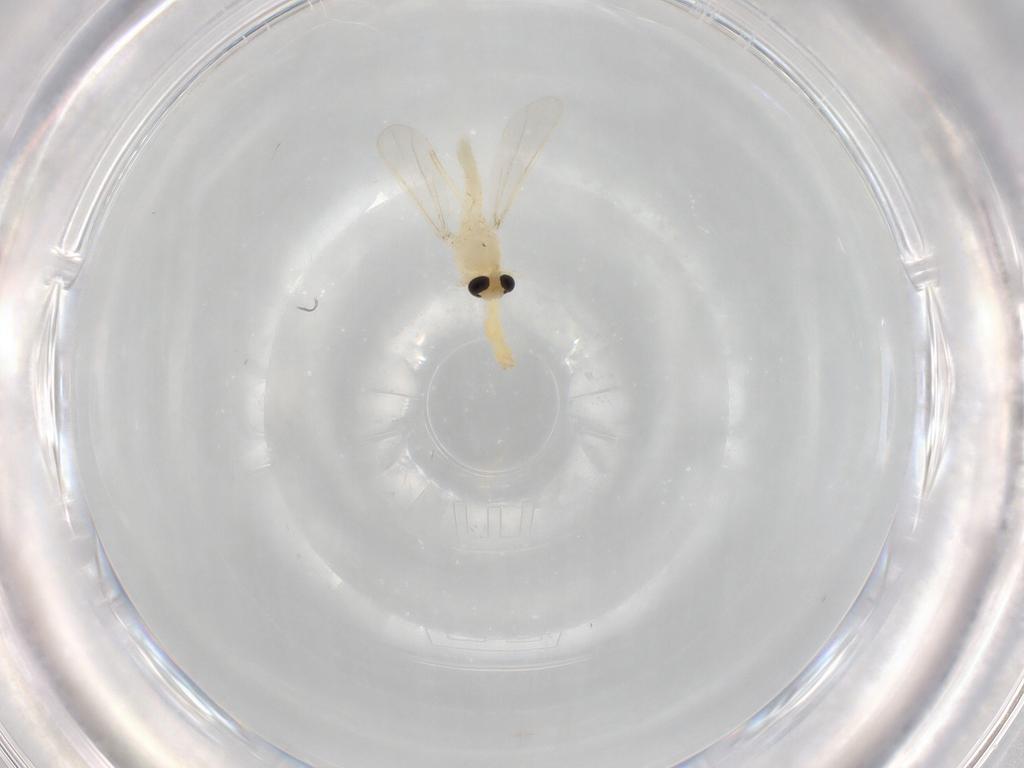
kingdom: Animalia
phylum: Arthropoda
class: Insecta
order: Diptera
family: Chironomidae
